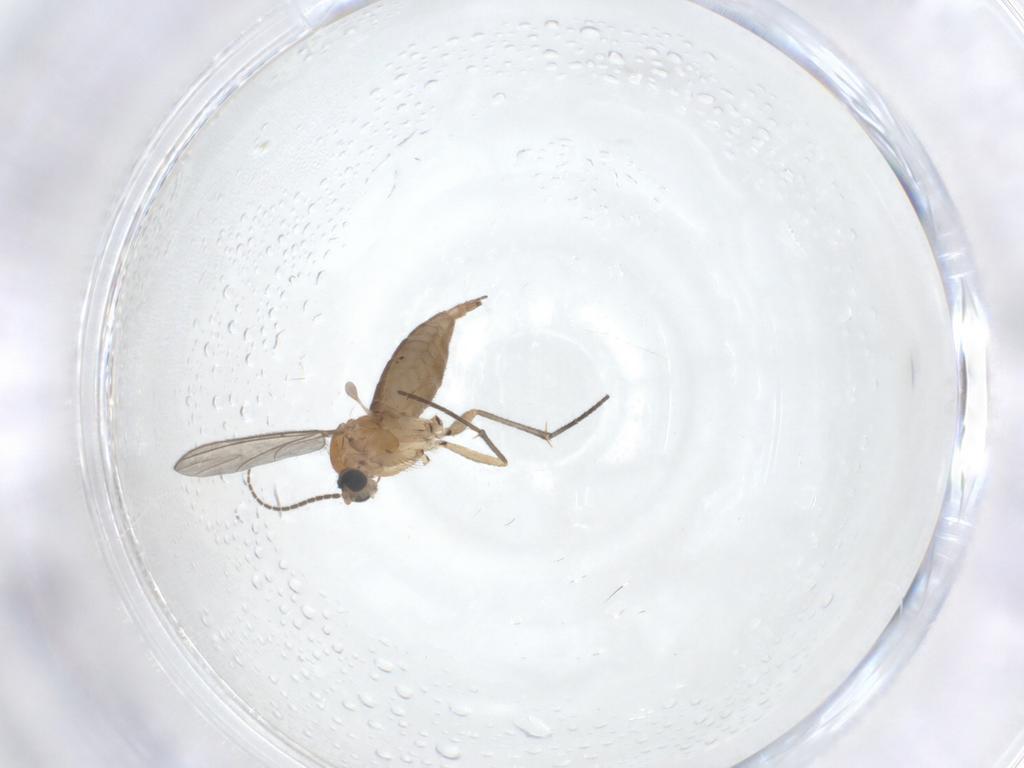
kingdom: Animalia
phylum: Arthropoda
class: Insecta
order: Diptera
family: Sciaridae
